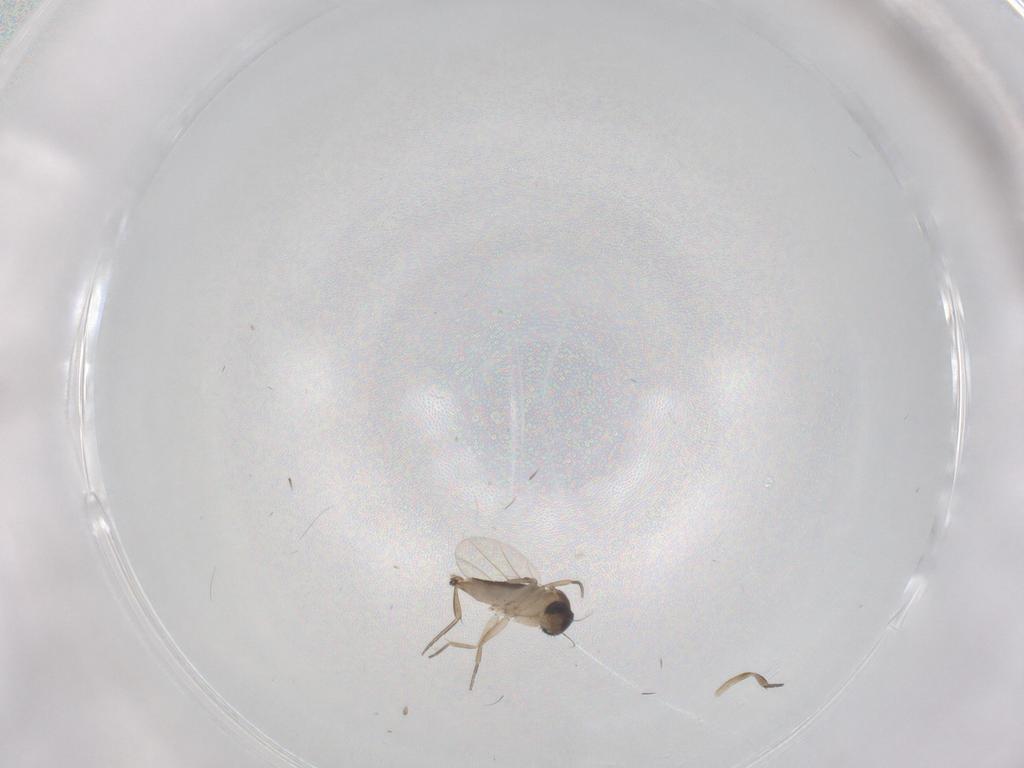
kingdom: Animalia
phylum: Arthropoda
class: Insecta
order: Diptera
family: Phoridae
